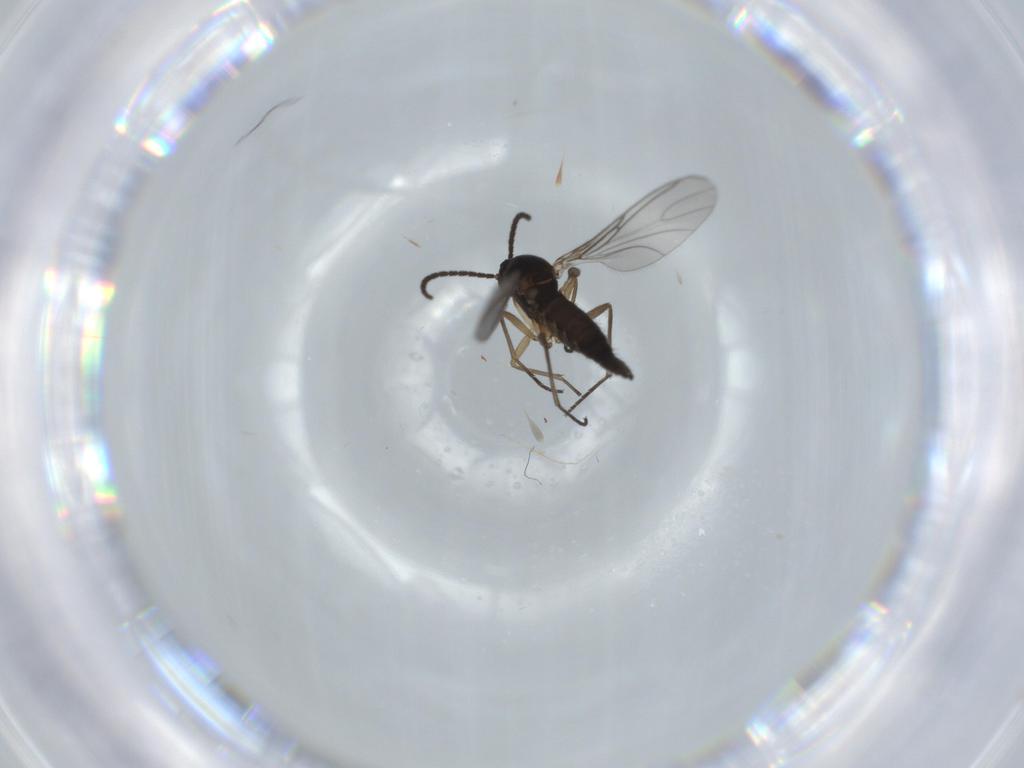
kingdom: Animalia
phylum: Arthropoda
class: Insecta
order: Diptera
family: Sciaridae
